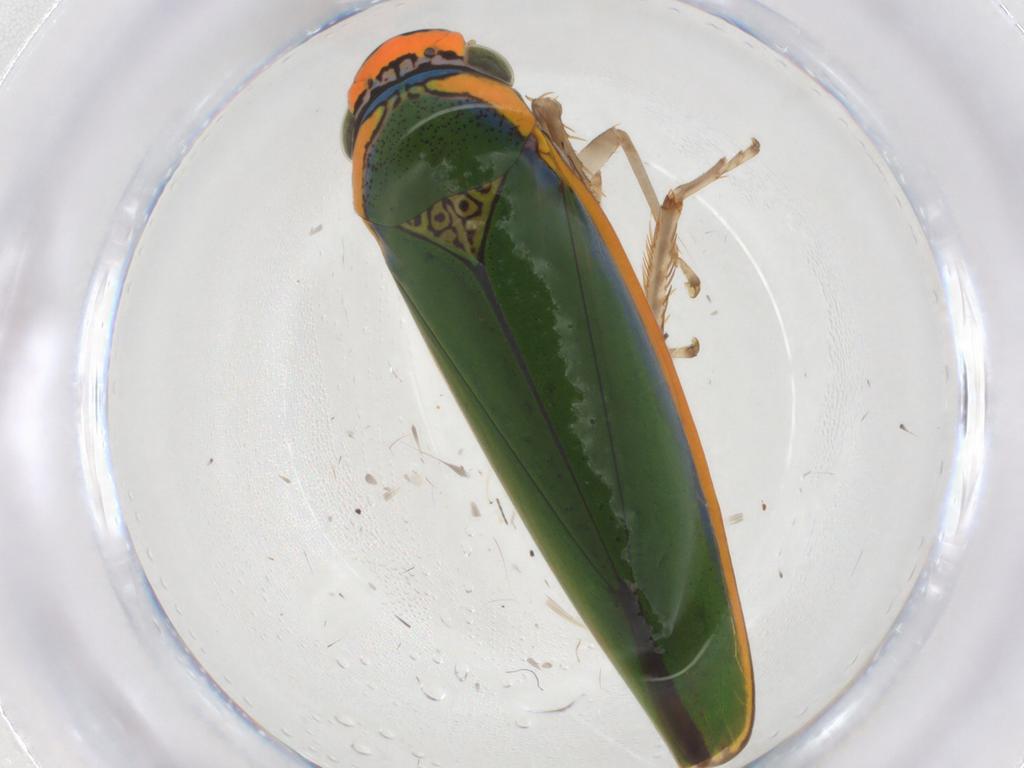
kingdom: Animalia
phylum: Arthropoda
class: Insecta
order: Hemiptera
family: Cicadellidae
